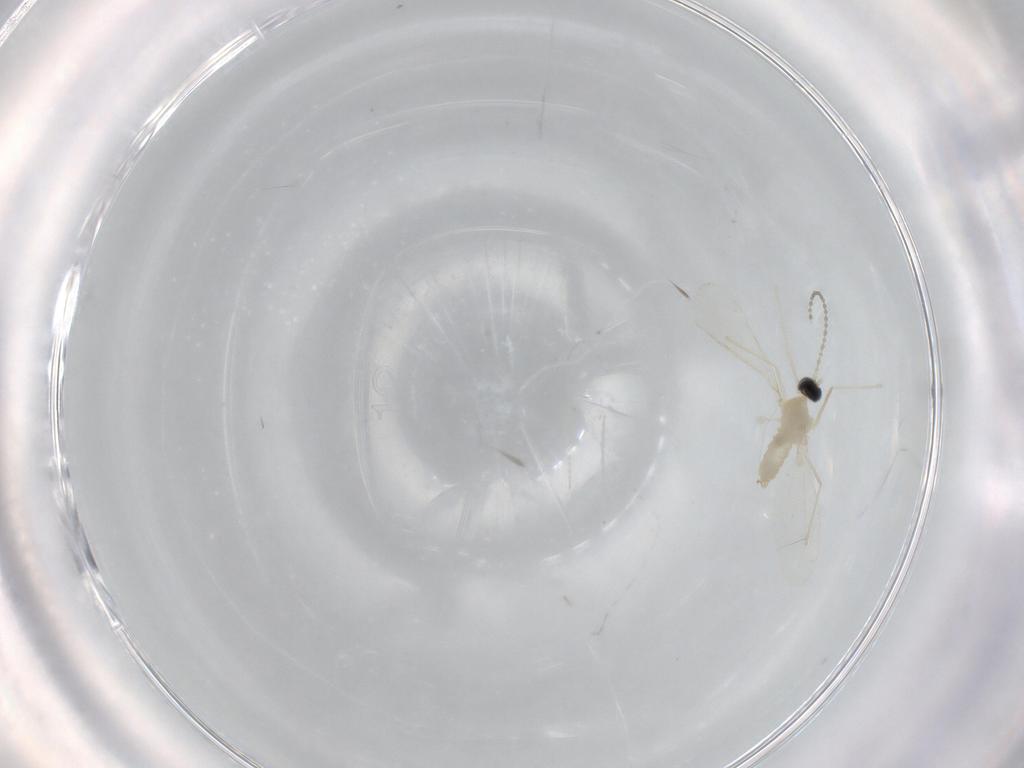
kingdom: Animalia
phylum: Arthropoda
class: Insecta
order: Diptera
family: Cecidomyiidae
